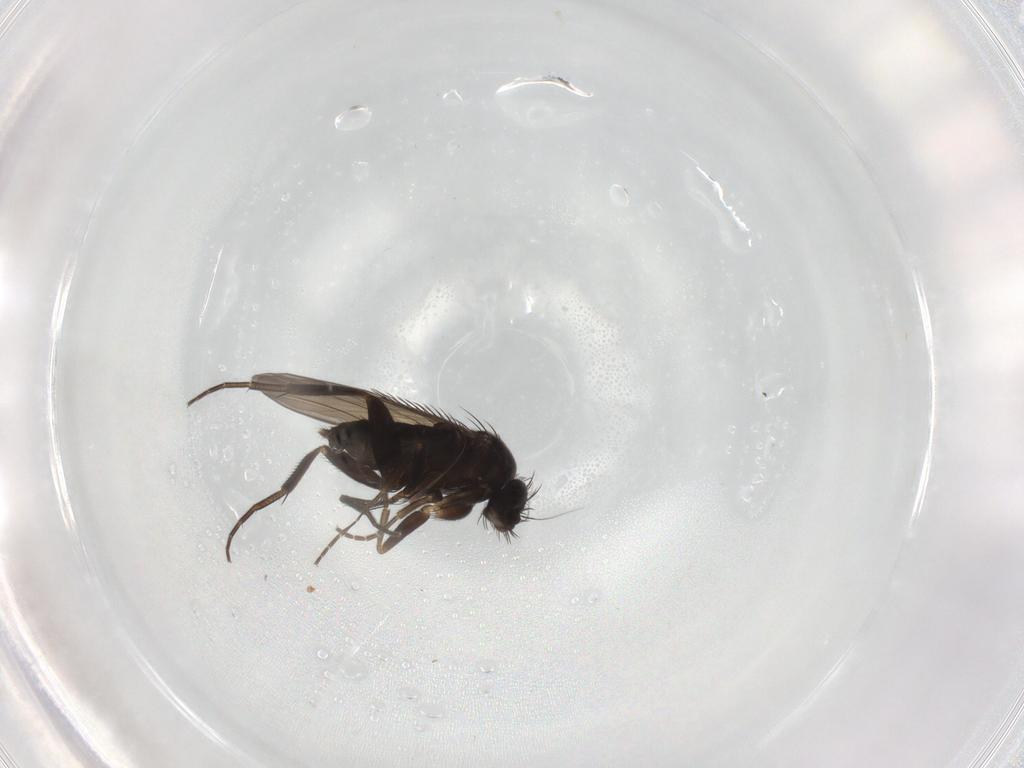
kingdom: Animalia
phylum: Arthropoda
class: Insecta
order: Diptera
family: Phoridae
